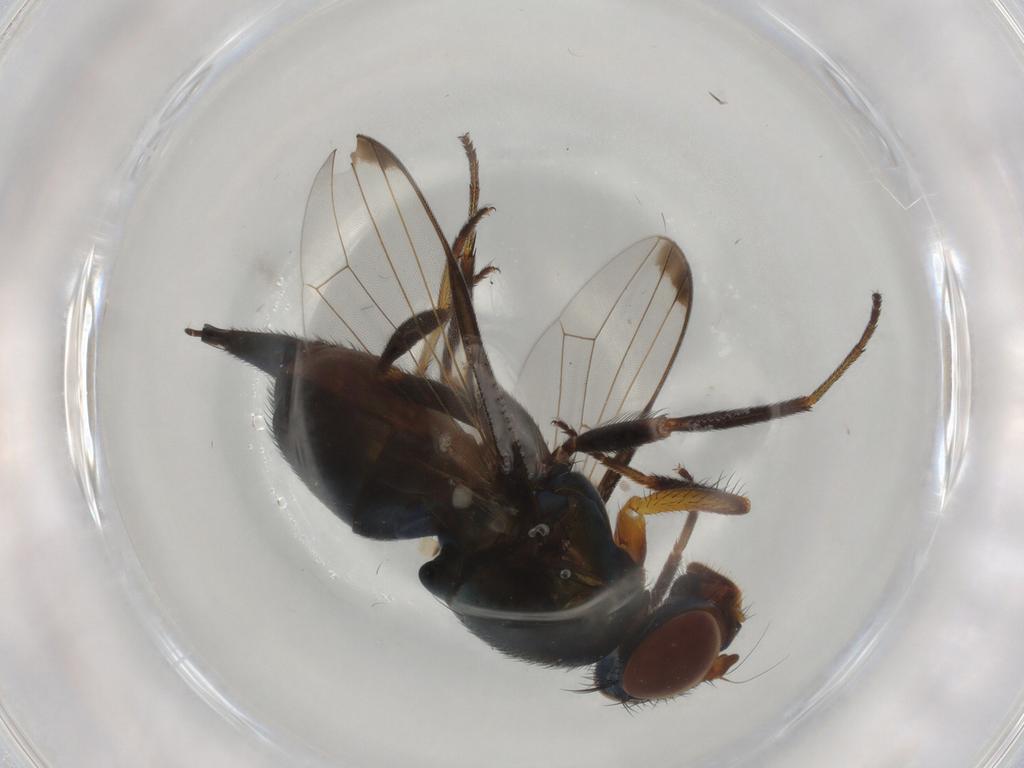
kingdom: Animalia
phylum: Arthropoda
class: Insecta
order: Diptera
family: Ulidiidae
